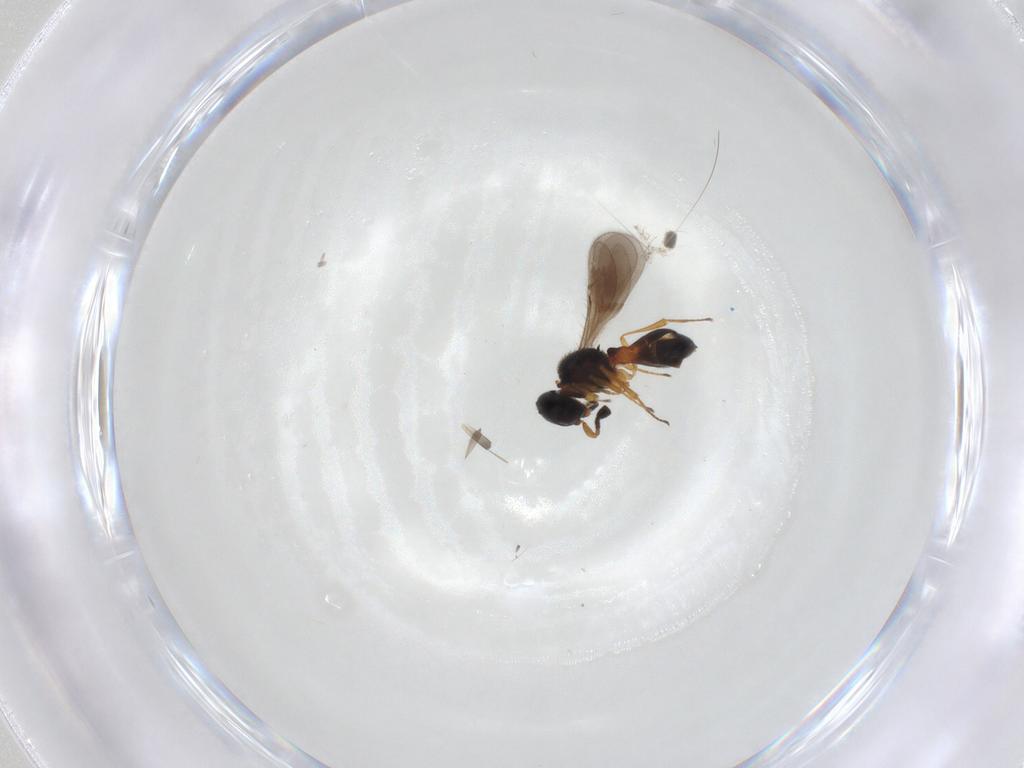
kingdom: Animalia
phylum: Arthropoda
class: Insecta
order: Hymenoptera
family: Scelionidae
